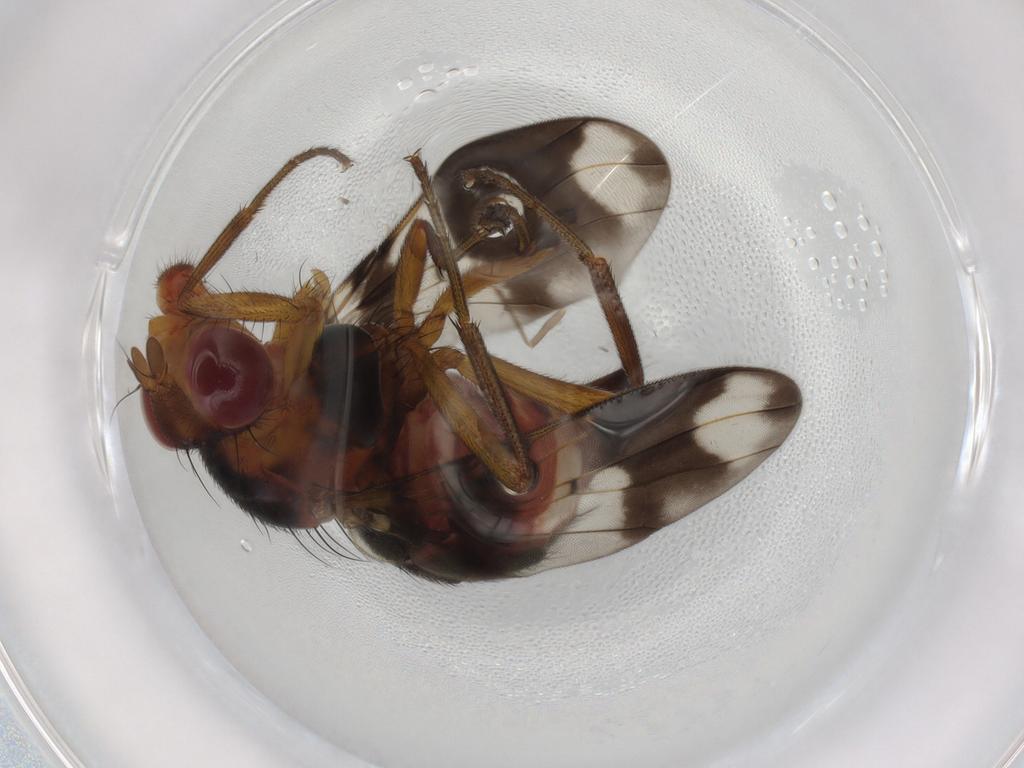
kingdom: Animalia
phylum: Arthropoda
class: Insecta
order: Diptera
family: Richardiidae
